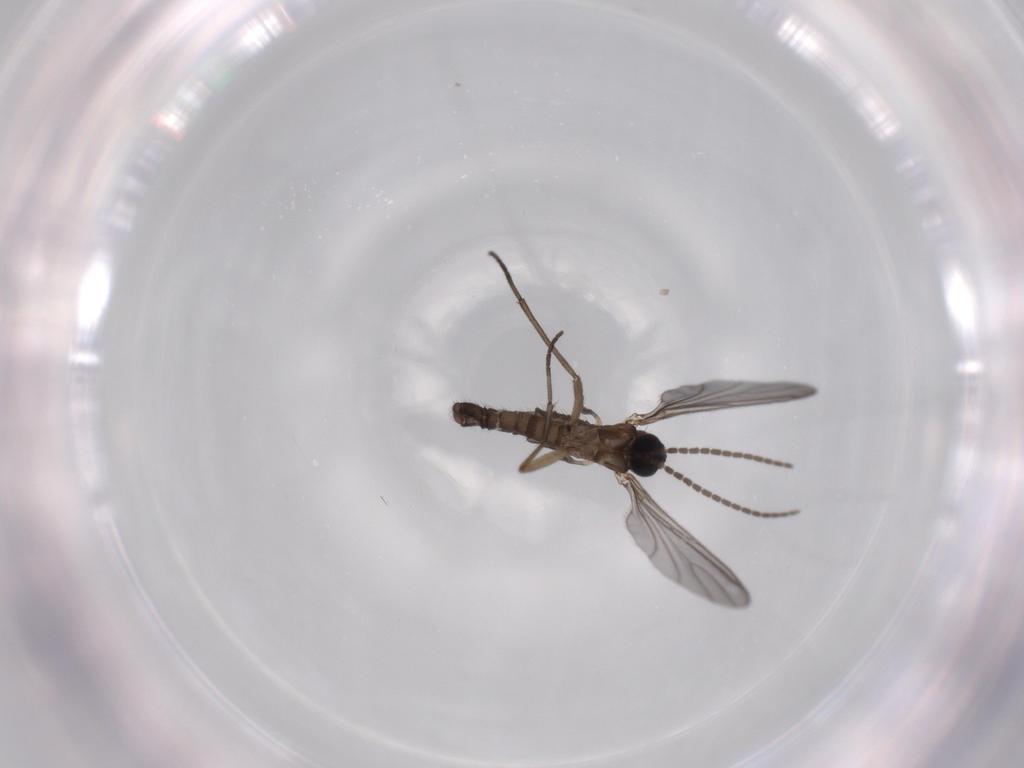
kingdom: Animalia
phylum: Arthropoda
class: Insecta
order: Diptera
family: Sciaridae
